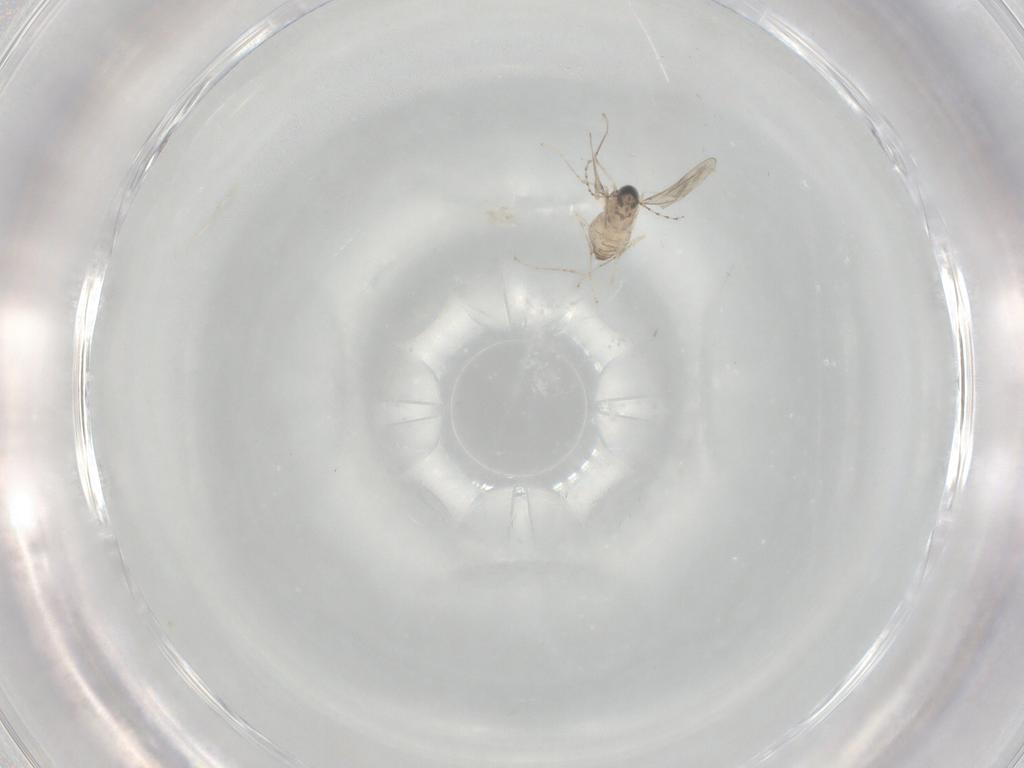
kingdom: Animalia
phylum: Arthropoda
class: Insecta
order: Diptera
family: Cecidomyiidae
